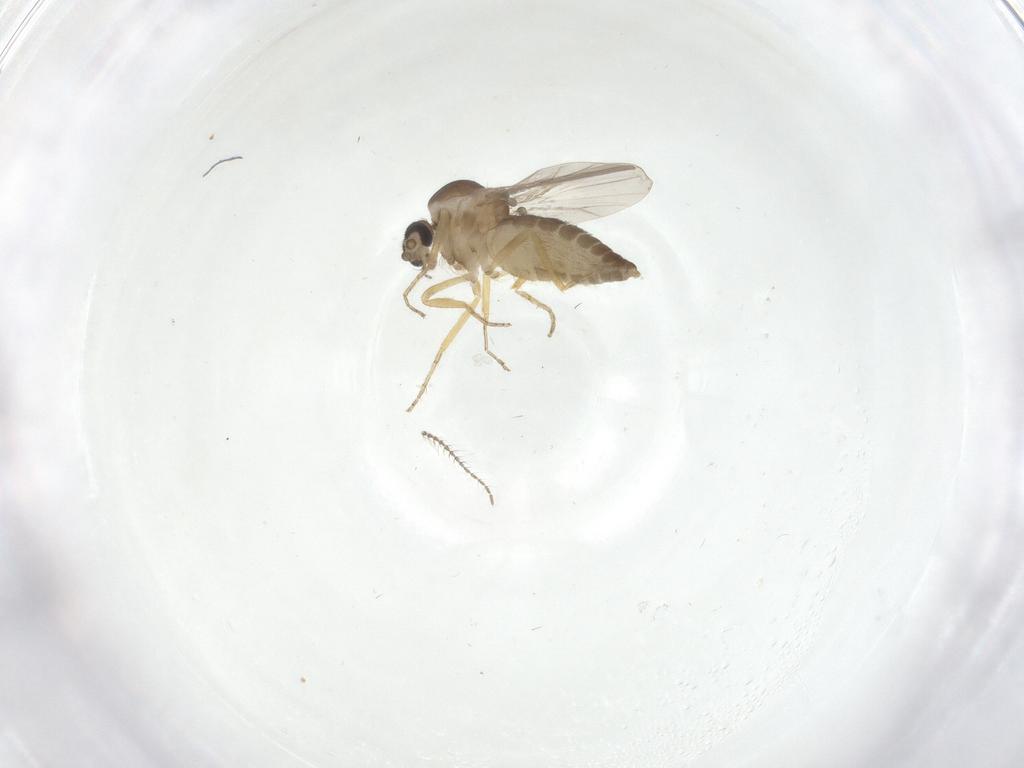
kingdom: Animalia
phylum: Arthropoda
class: Insecta
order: Diptera
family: Ceratopogonidae
